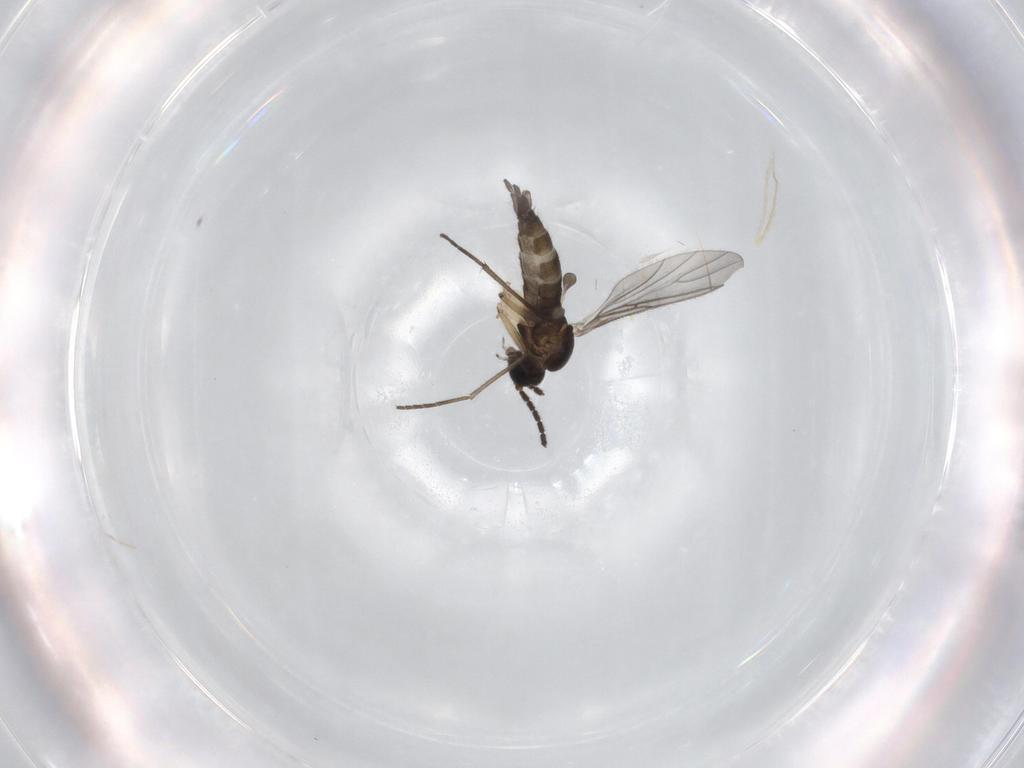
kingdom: Animalia
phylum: Arthropoda
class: Insecta
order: Diptera
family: Sciaridae
